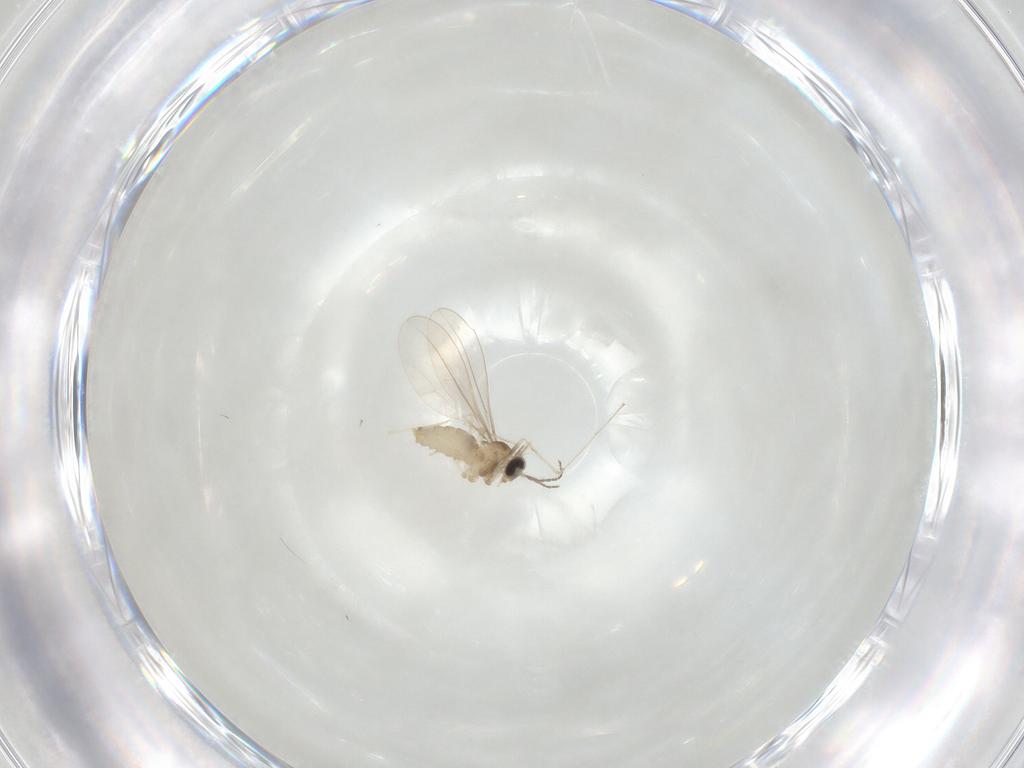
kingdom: Animalia
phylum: Arthropoda
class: Insecta
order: Diptera
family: Cecidomyiidae
